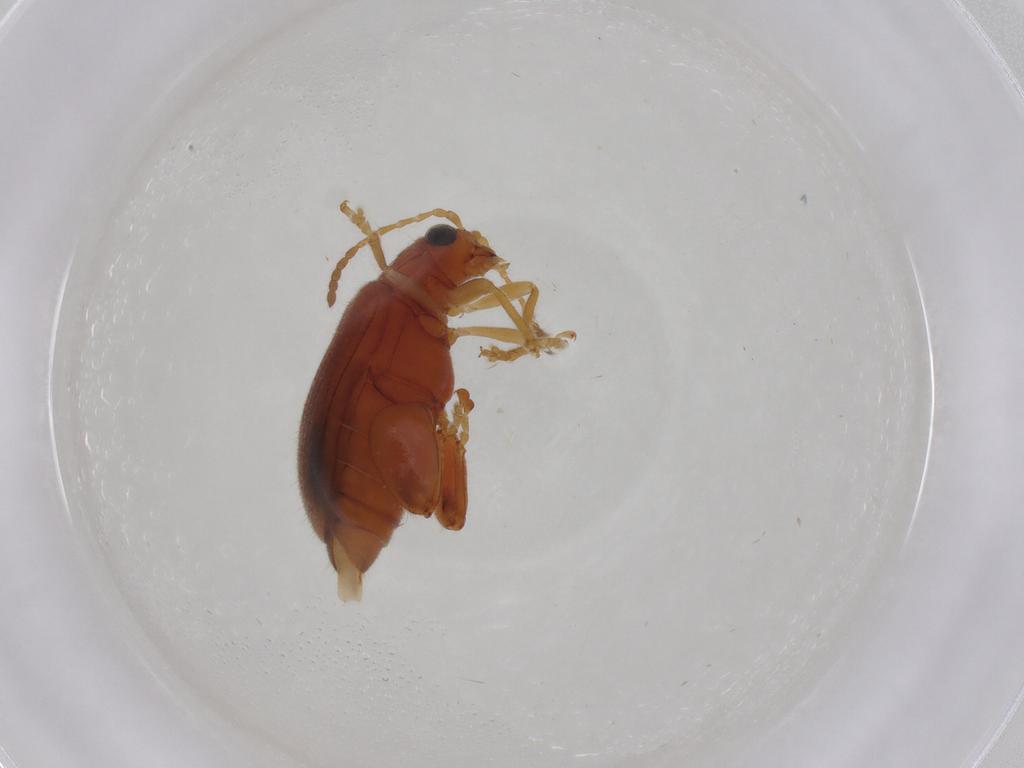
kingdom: Animalia
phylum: Arthropoda
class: Insecta
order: Coleoptera
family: Chrysomelidae
